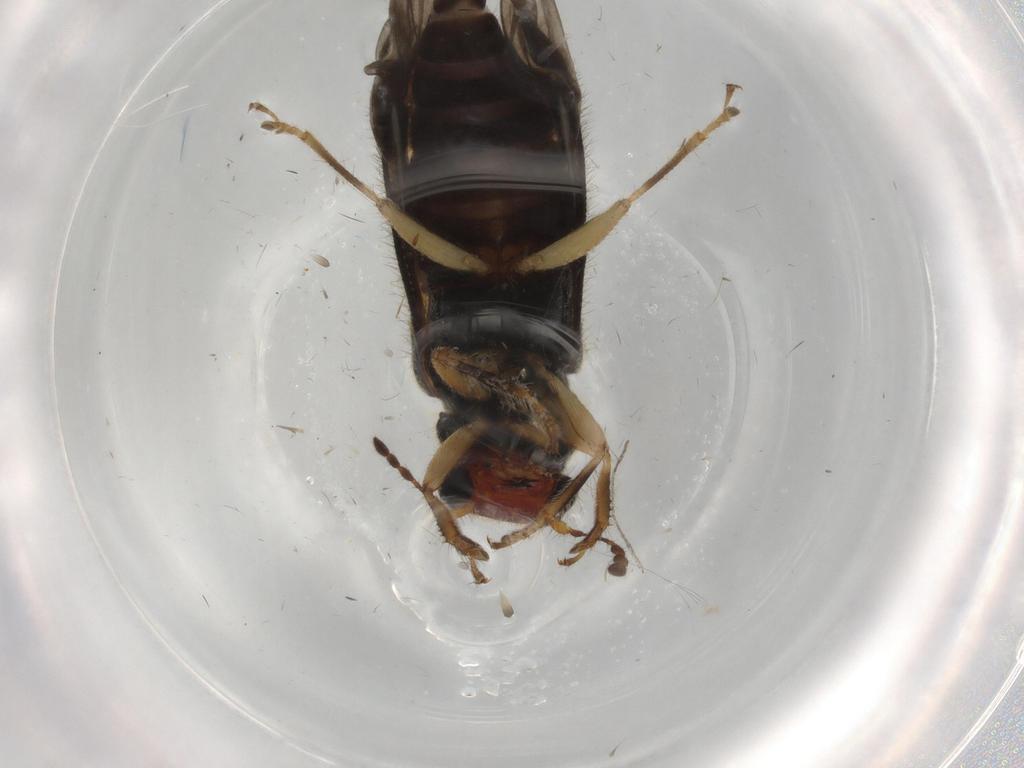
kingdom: Animalia
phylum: Arthropoda
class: Insecta
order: Coleoptera
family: Cleridae
